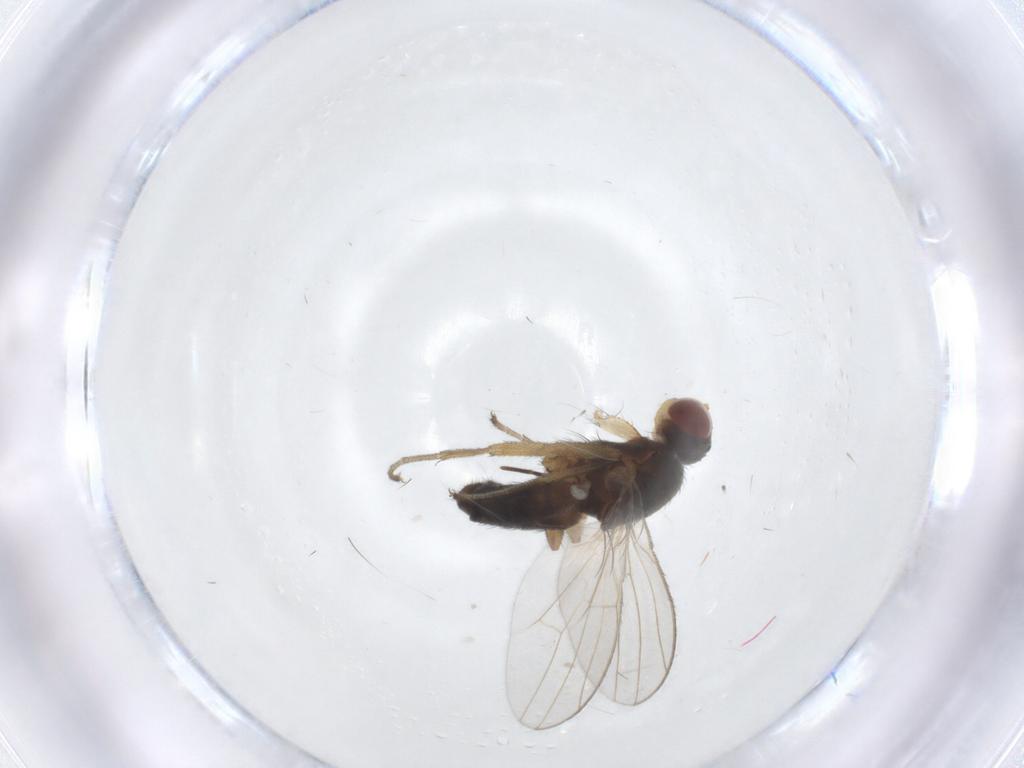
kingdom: Animalia
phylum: Arthropoda
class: Insecta
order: Diptera
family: Heleomyzidae
